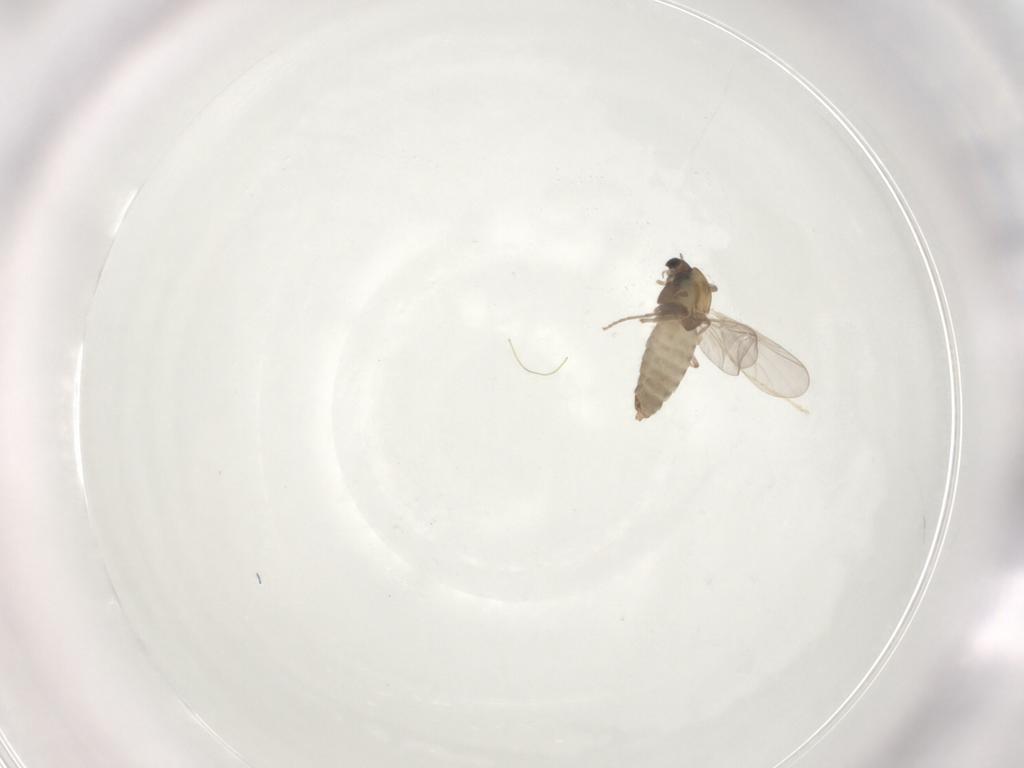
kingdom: Animalia
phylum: Arthropoda
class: Insecta
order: Diptera
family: Chironomidae
